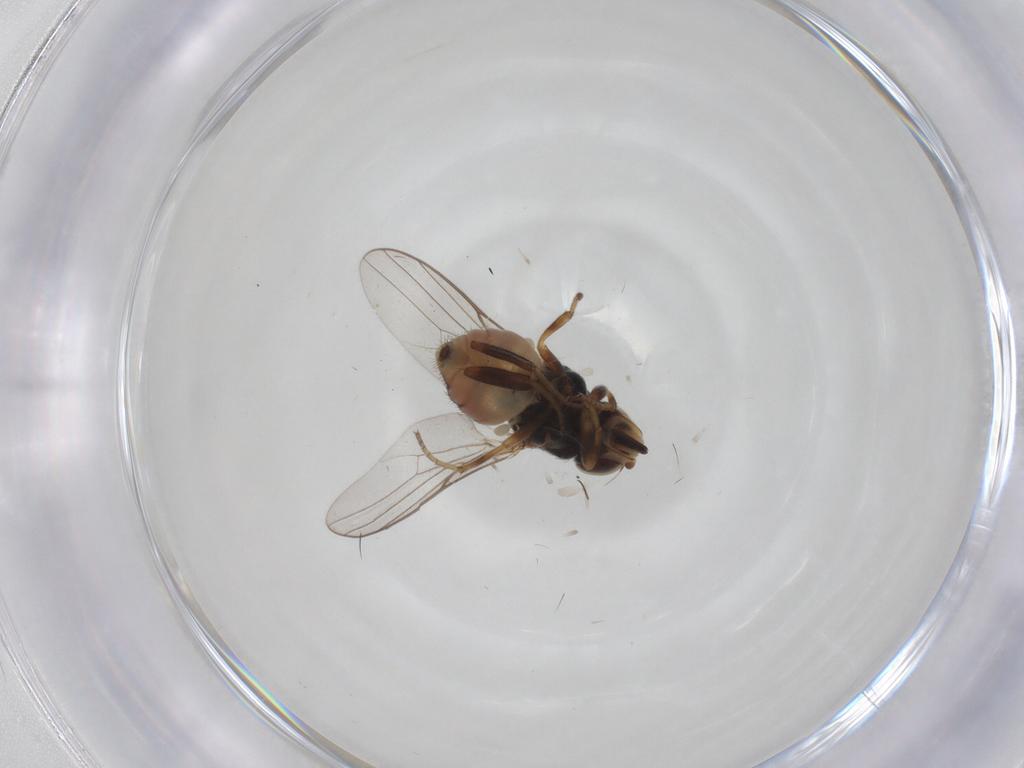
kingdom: Animalia
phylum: Arthropoda
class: Insecta
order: Diptera
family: Chloropidae
